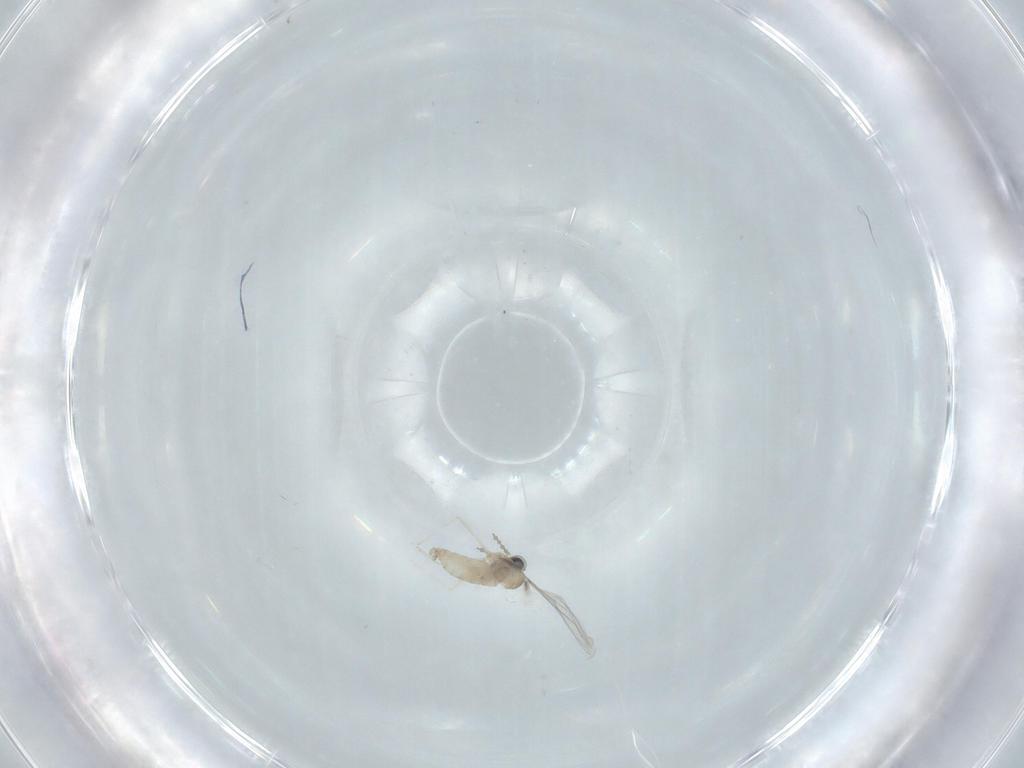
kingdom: Animalia
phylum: Arthropoda
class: Insecta
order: Diptera
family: Cecidomyiidae
